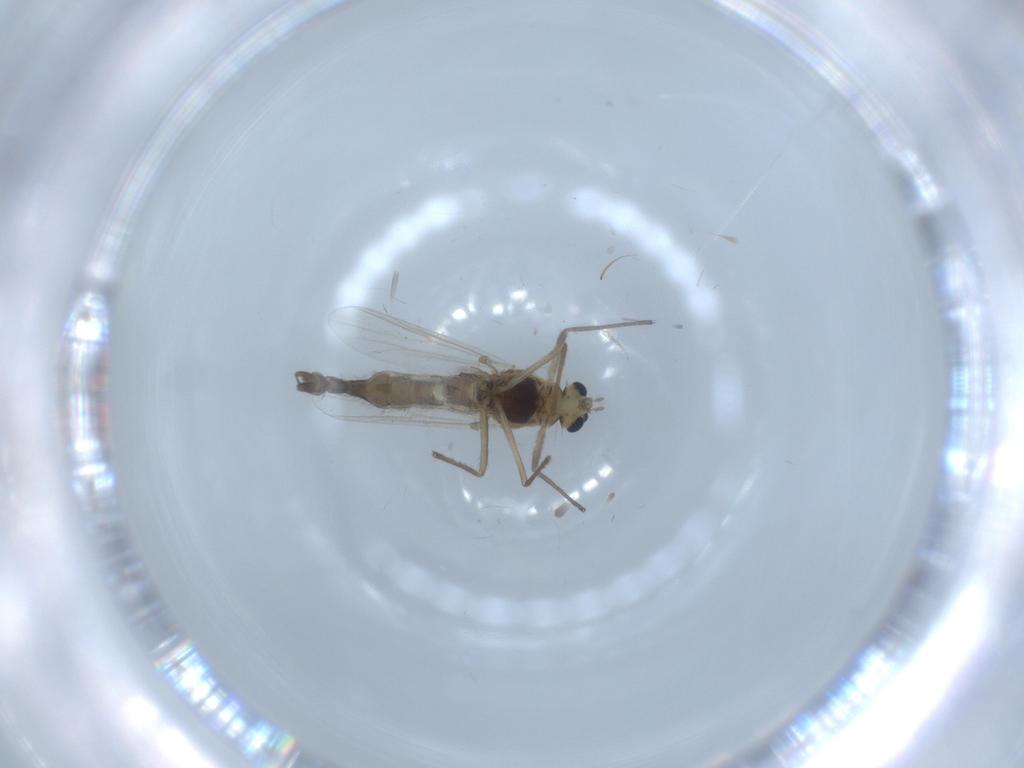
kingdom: Animalia
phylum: Arthropoda
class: Insecta
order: Diptera
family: Chironomidae
